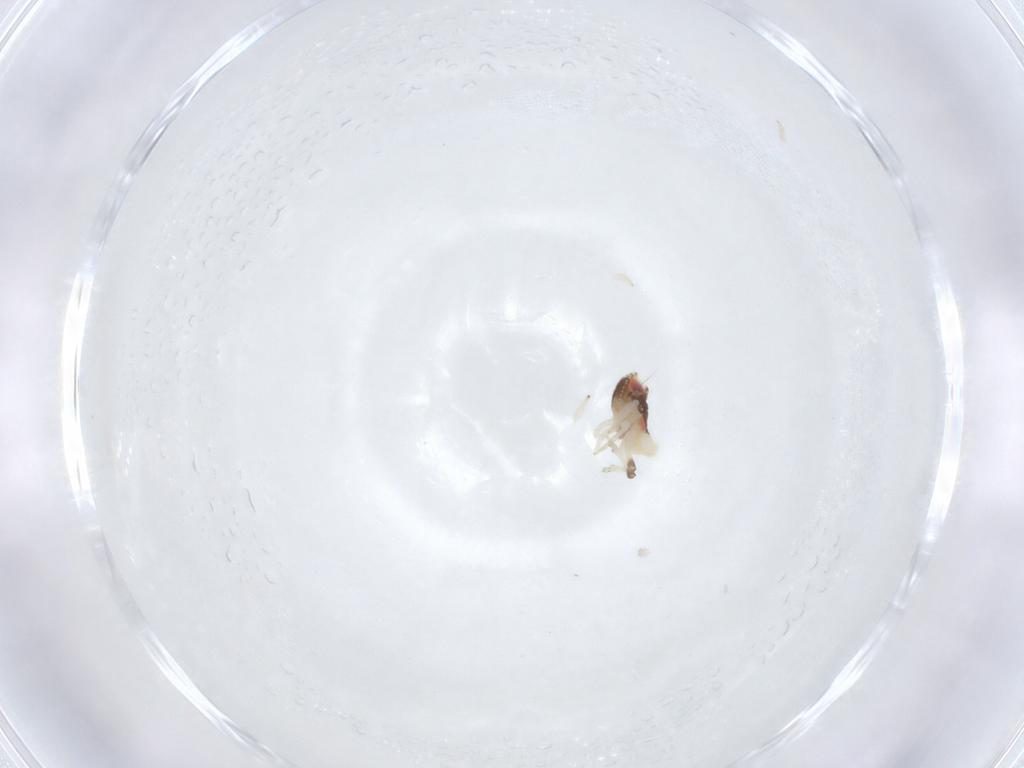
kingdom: Animalia
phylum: Arthropoda
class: Insecta
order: Hemiptera
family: Nogodinidae
